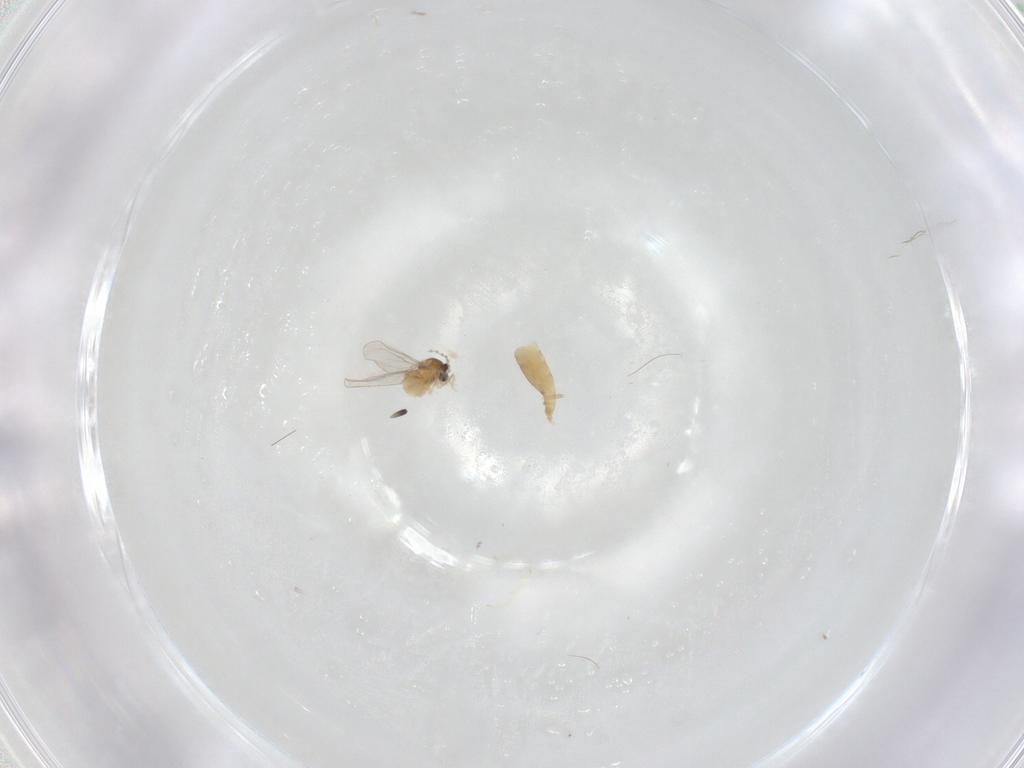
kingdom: Animalia
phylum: Arthropoda
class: Insecta
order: Diptera
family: Cecidomyiidae
